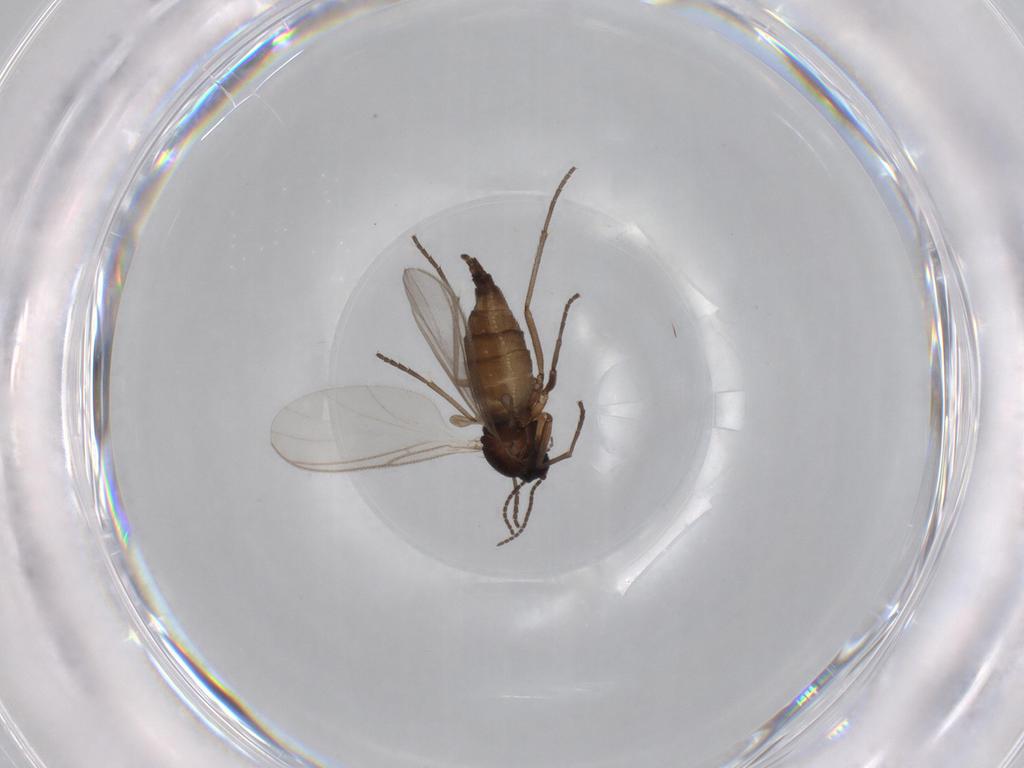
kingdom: Animalia
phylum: Arthropoda
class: Insecta
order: Diptera
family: Sciaridae
